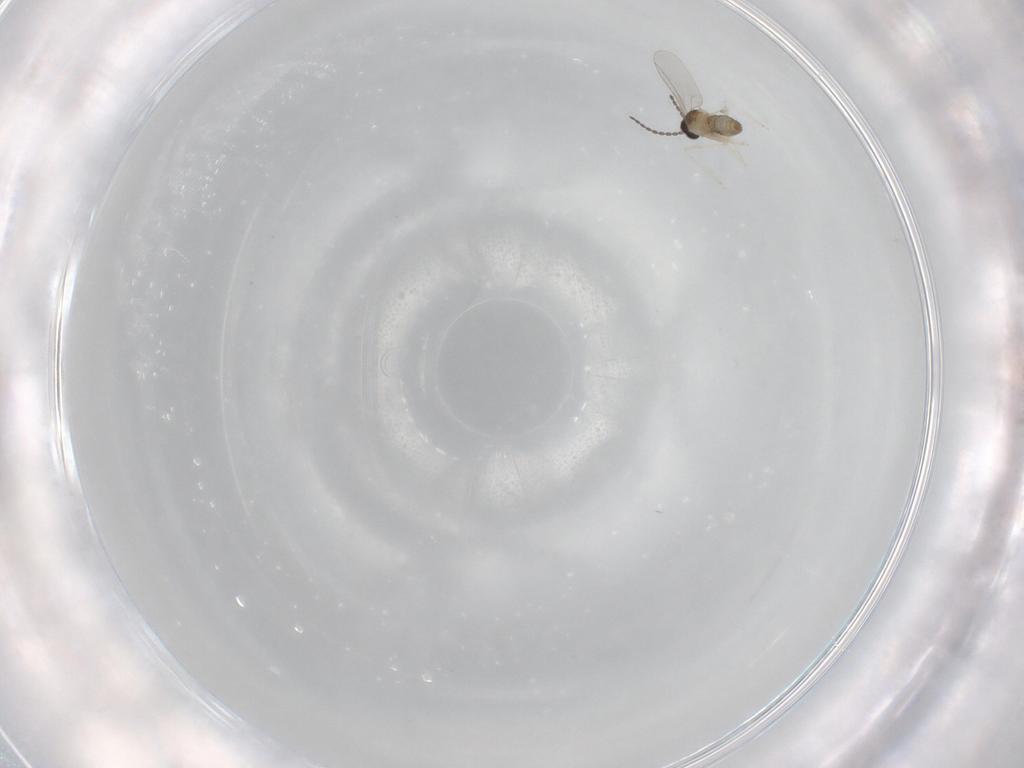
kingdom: Animalia
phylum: Arthropoda
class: Insecta
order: Diptera
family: Cecidomyiidae
